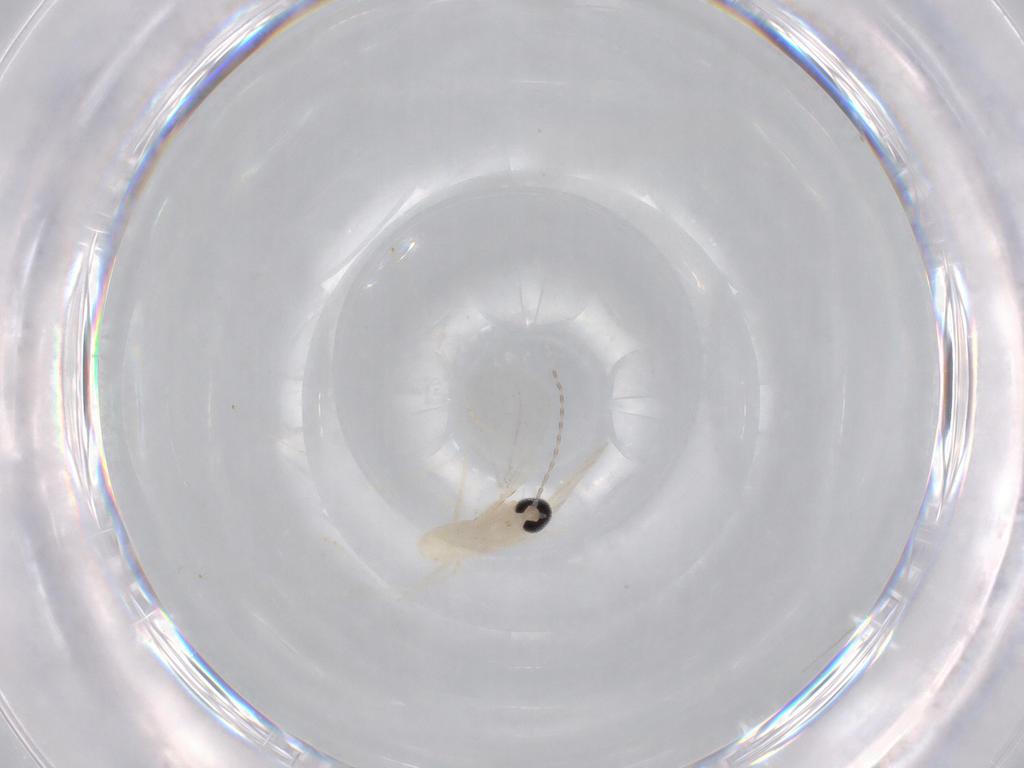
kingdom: Animalia
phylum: Arthropoda
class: Insecta
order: Diptera
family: Cecidomyiidae
